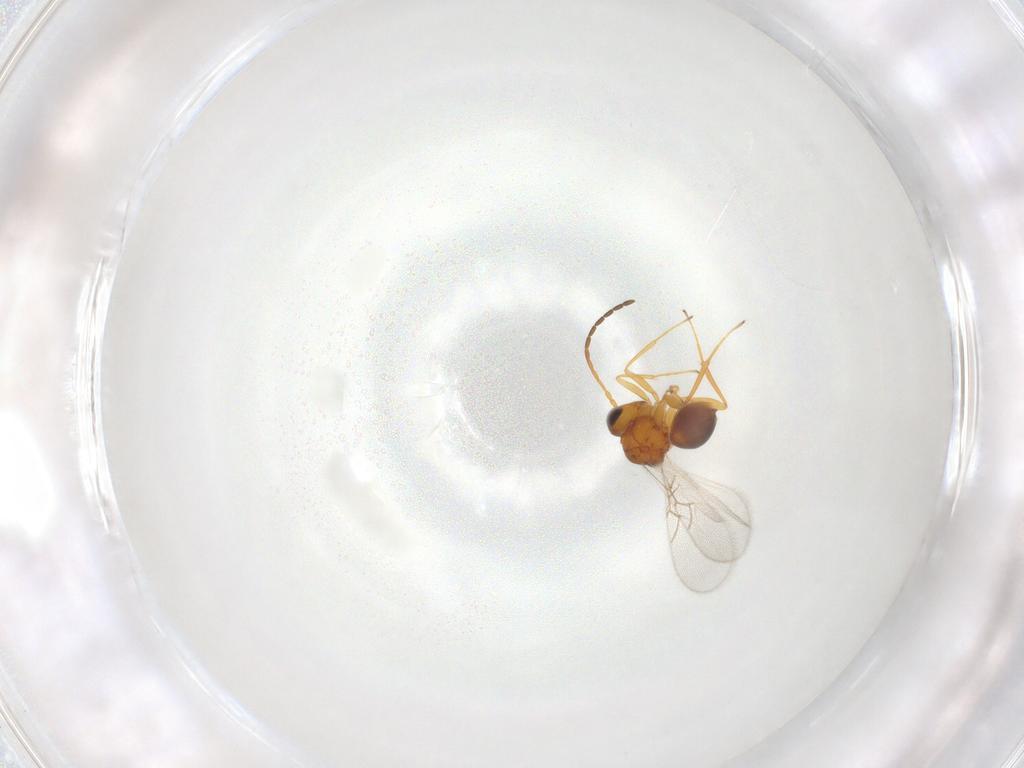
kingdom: Animalia
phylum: Arthropoda
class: Insecta
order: Hymenoptera
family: Figitidae
